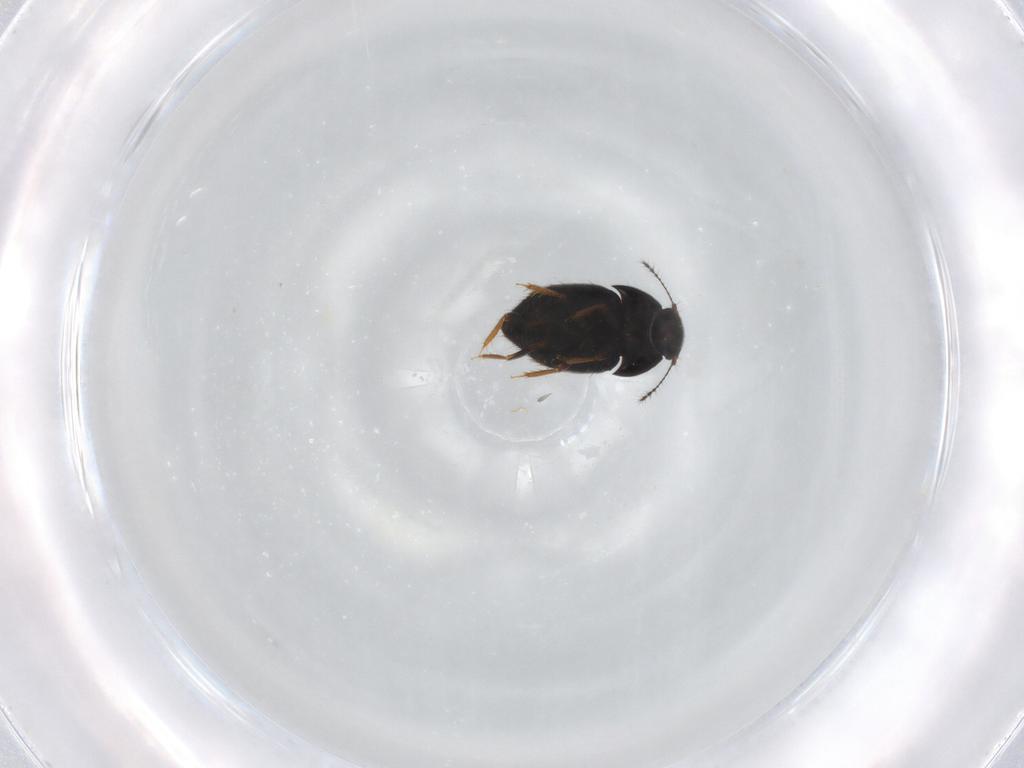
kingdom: Animalia
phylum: Arthropoda
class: Insecta
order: Coleoptera
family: Ptiliidae
